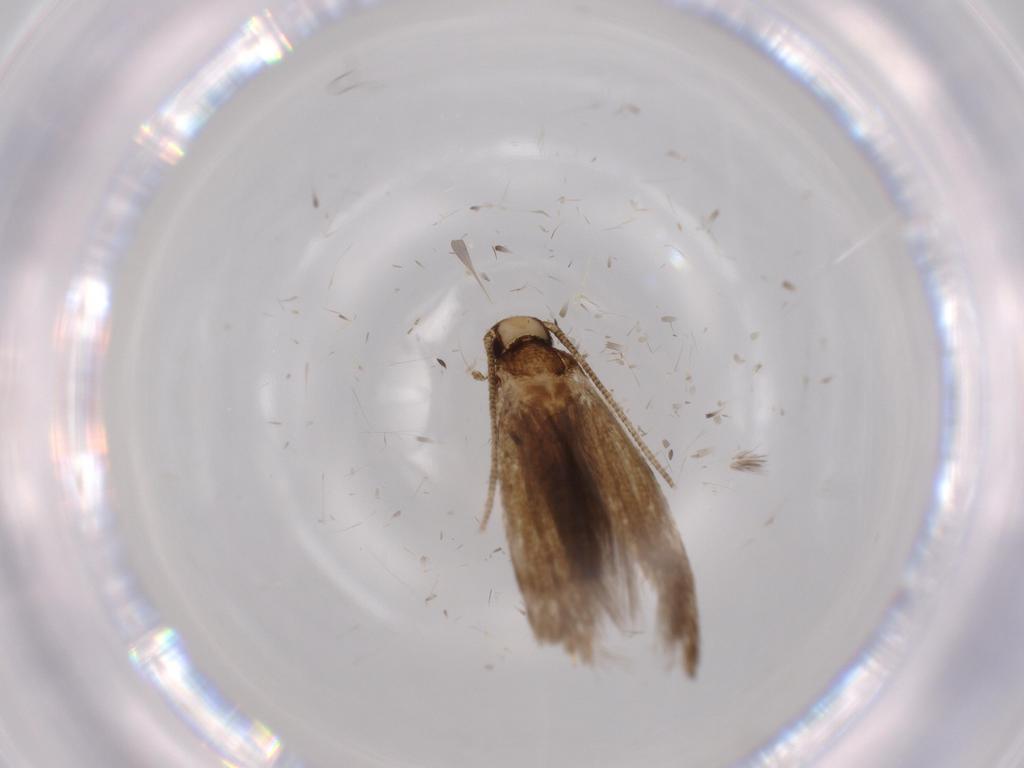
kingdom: Animalia
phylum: Arthropoda
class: Insecta
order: Lepidoptera
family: Tineidae
